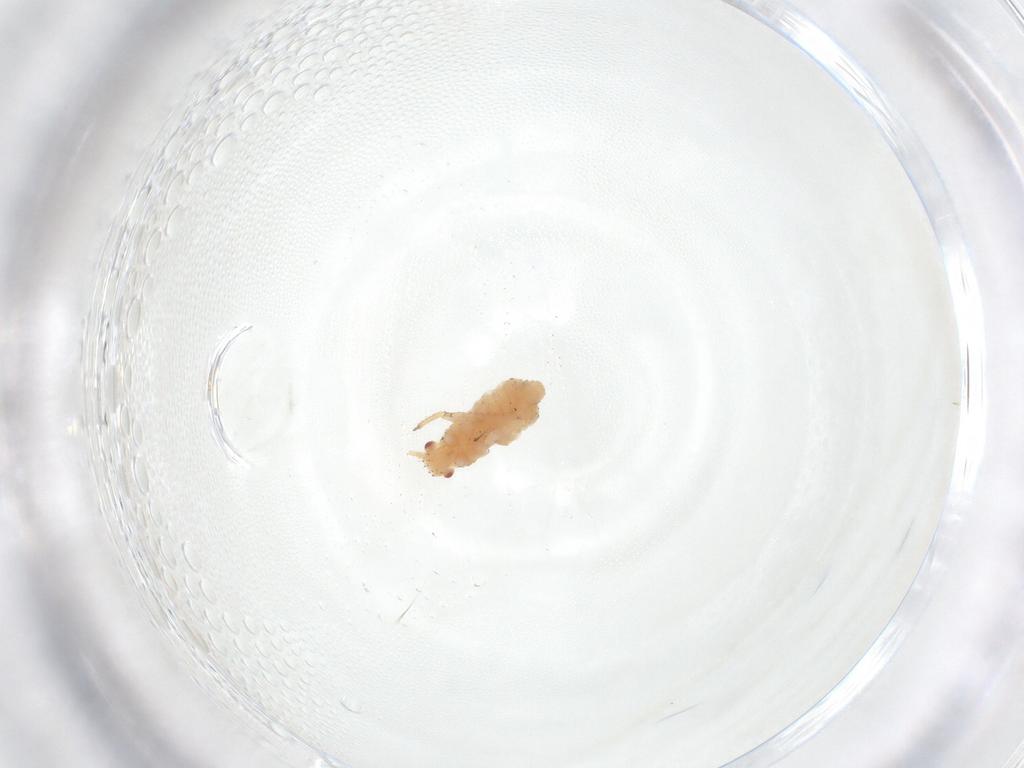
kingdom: Animalia
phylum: Arthropoda
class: Insecta
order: Hemiptera
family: Aphididae
